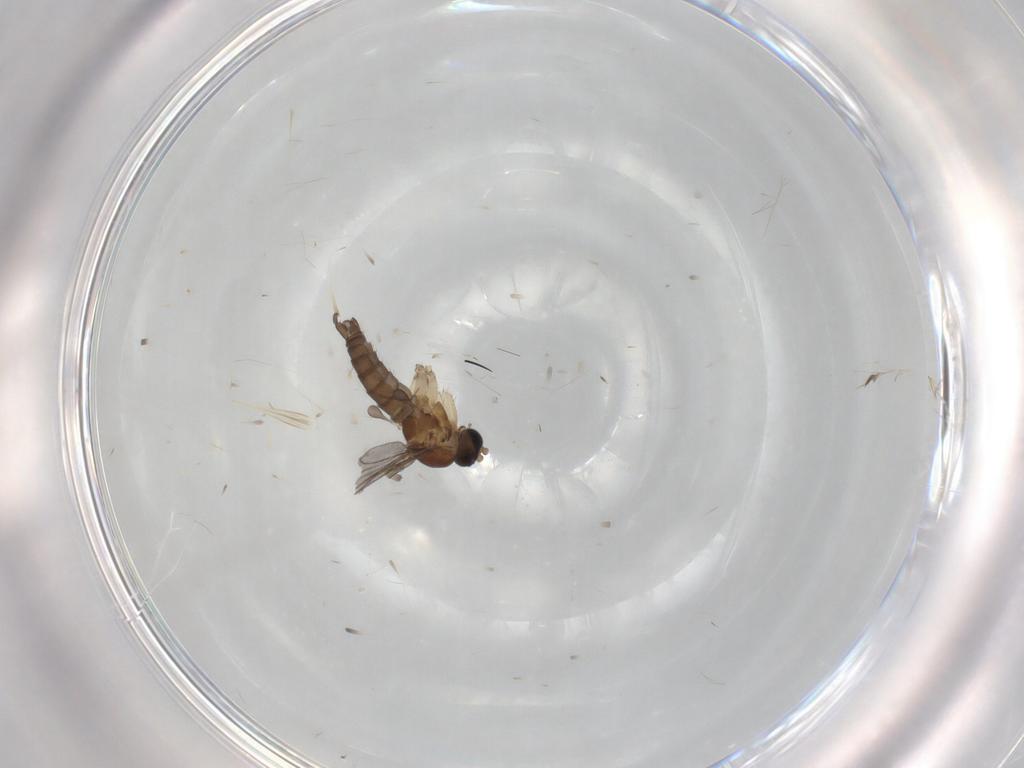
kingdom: Animalia
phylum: Arthropoda
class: Insecta
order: Diptera
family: Sciaridae
